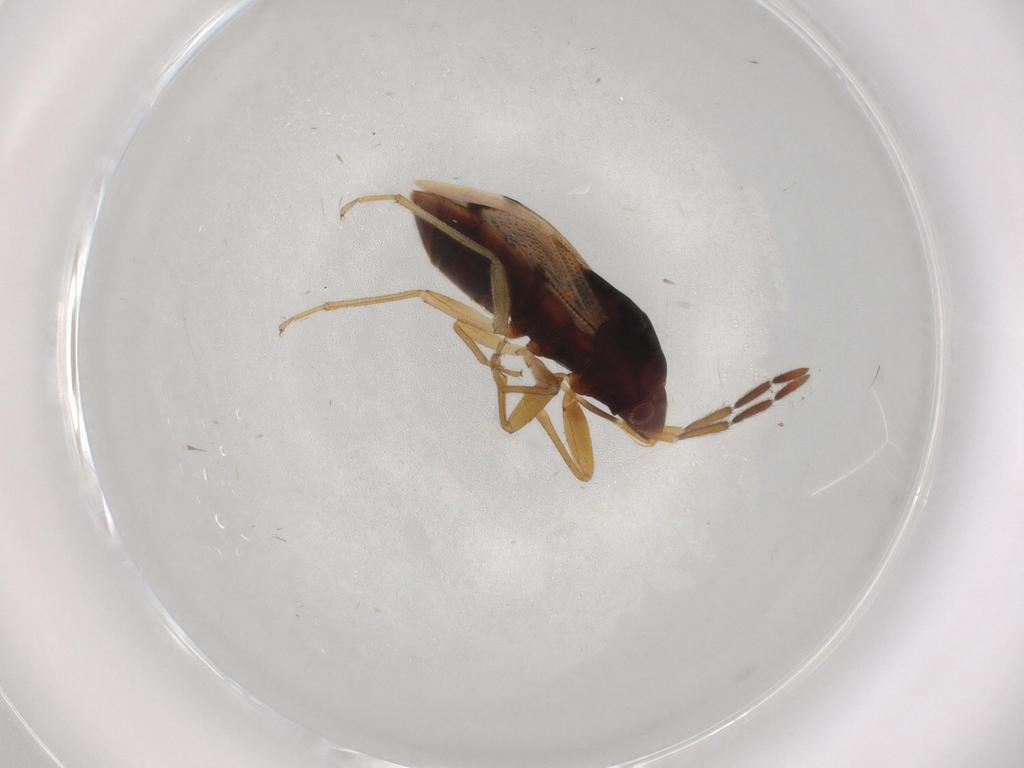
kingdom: Animalia
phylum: Arthropoda
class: Insecta
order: Hemiptera
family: Rhyparochromidae
